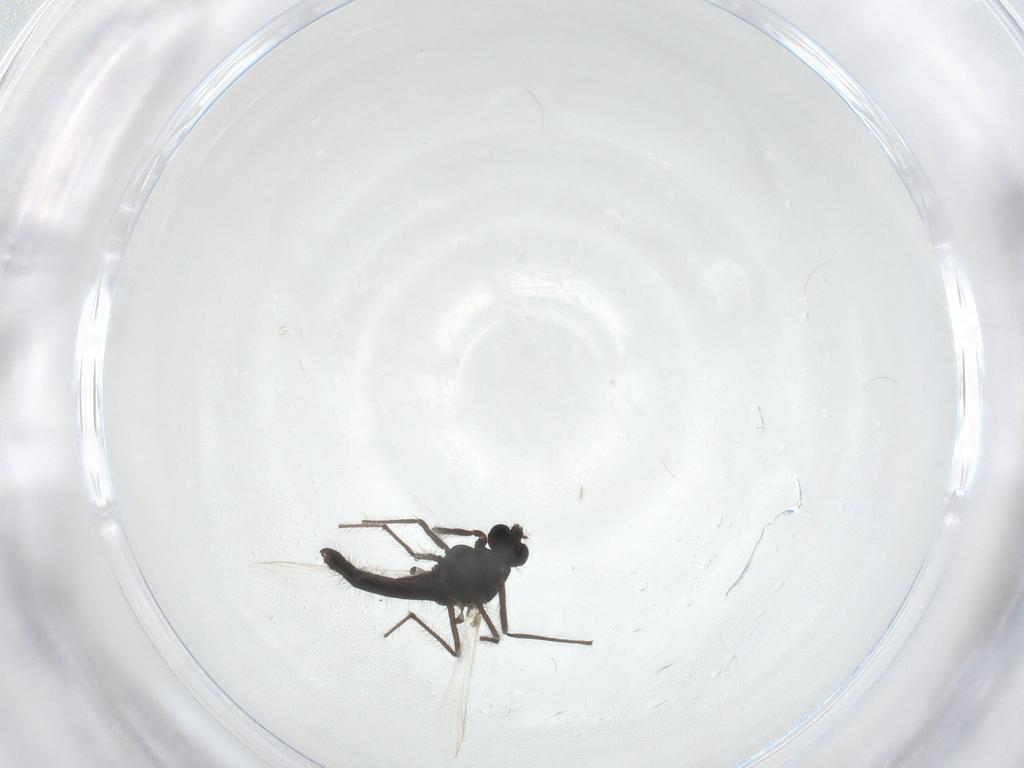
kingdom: Animalia
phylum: Arthropoda
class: Insecta
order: Diptera
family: Chironomidae
